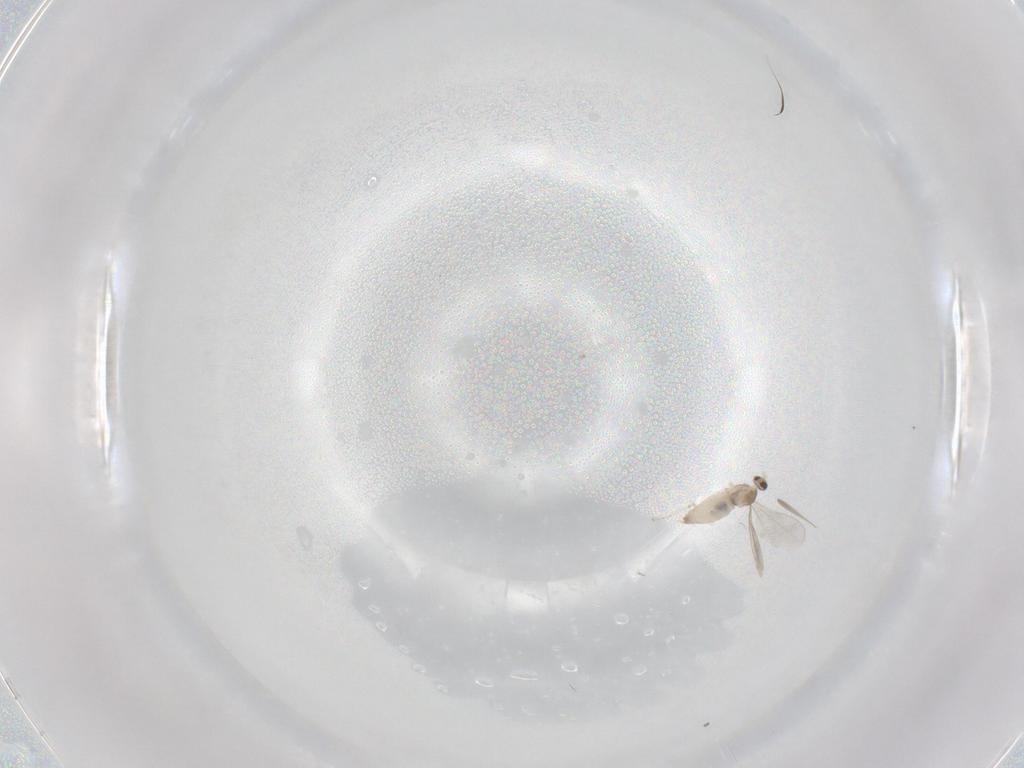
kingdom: Animalia
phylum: Arthropoda
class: Insecta
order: Diptera
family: Cecidomyiidae
